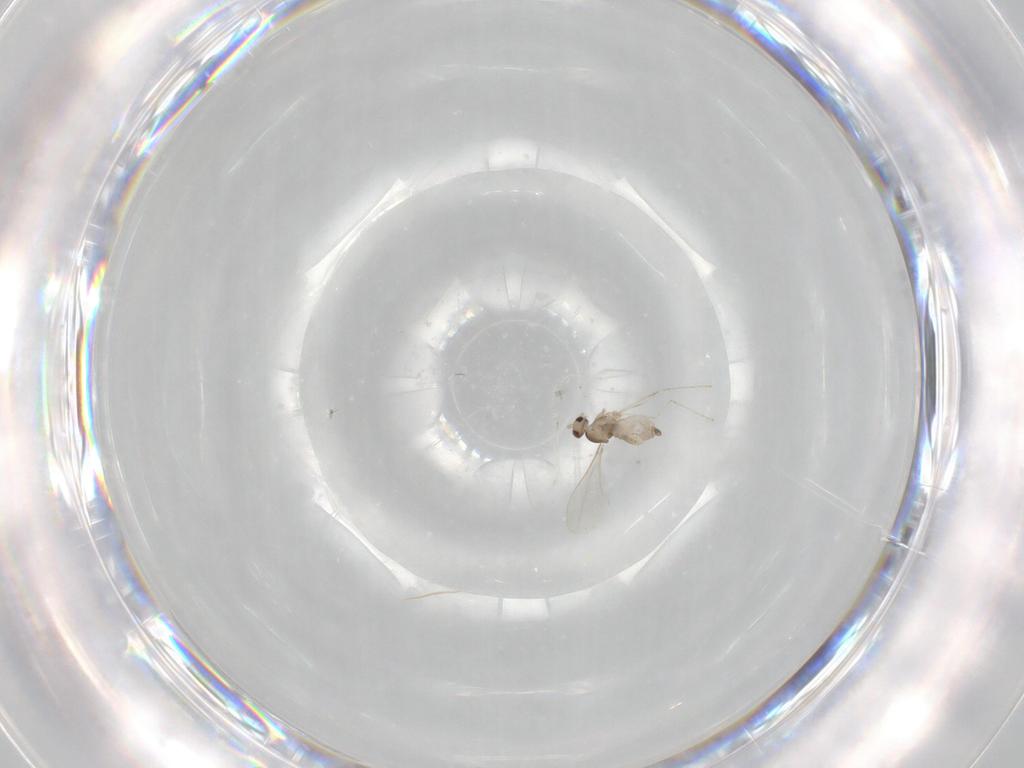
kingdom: Animalia
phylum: Arthropoda
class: Insecta
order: Diptera
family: Cecidomyiidae
